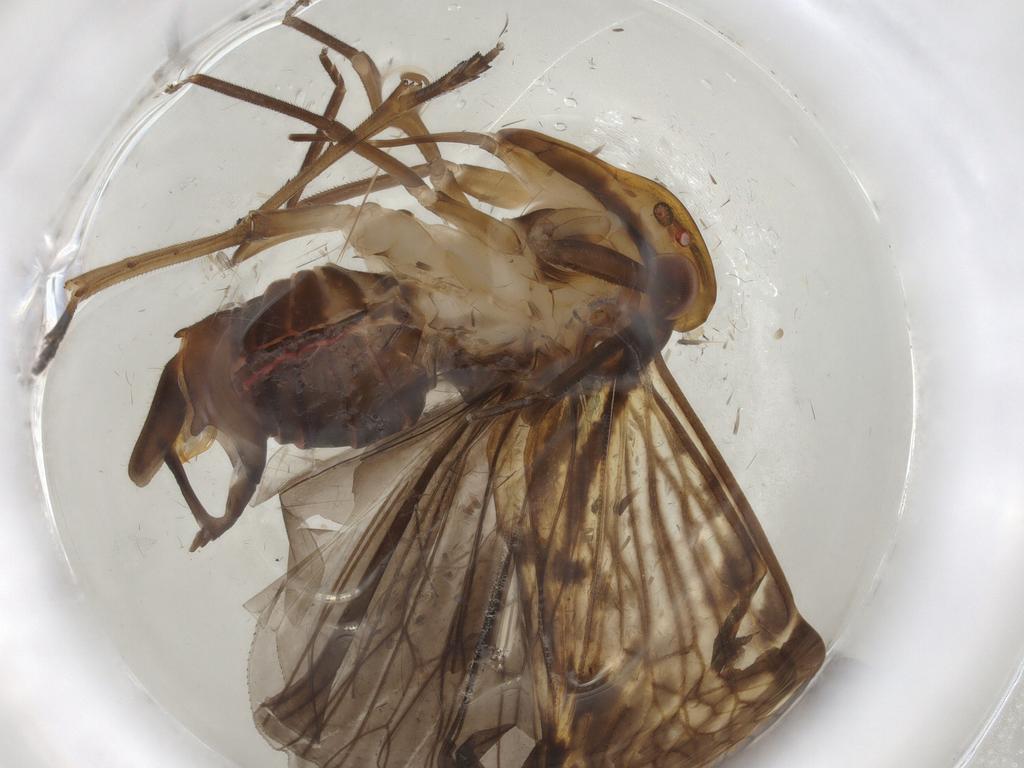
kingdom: Animalia
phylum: Arthropoda
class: Insecta
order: Hemiptera
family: Cixiidae
